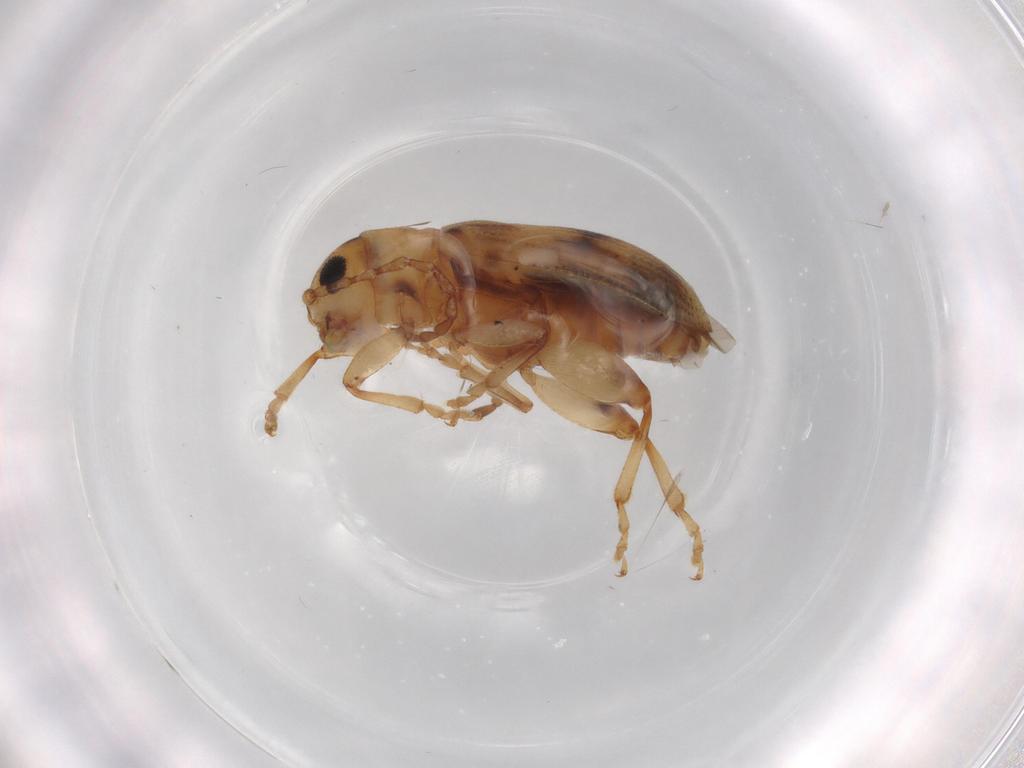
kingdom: Animalia
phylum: Arthropoda
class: Insecta
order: Coleoptera
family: Chrysomelidae
